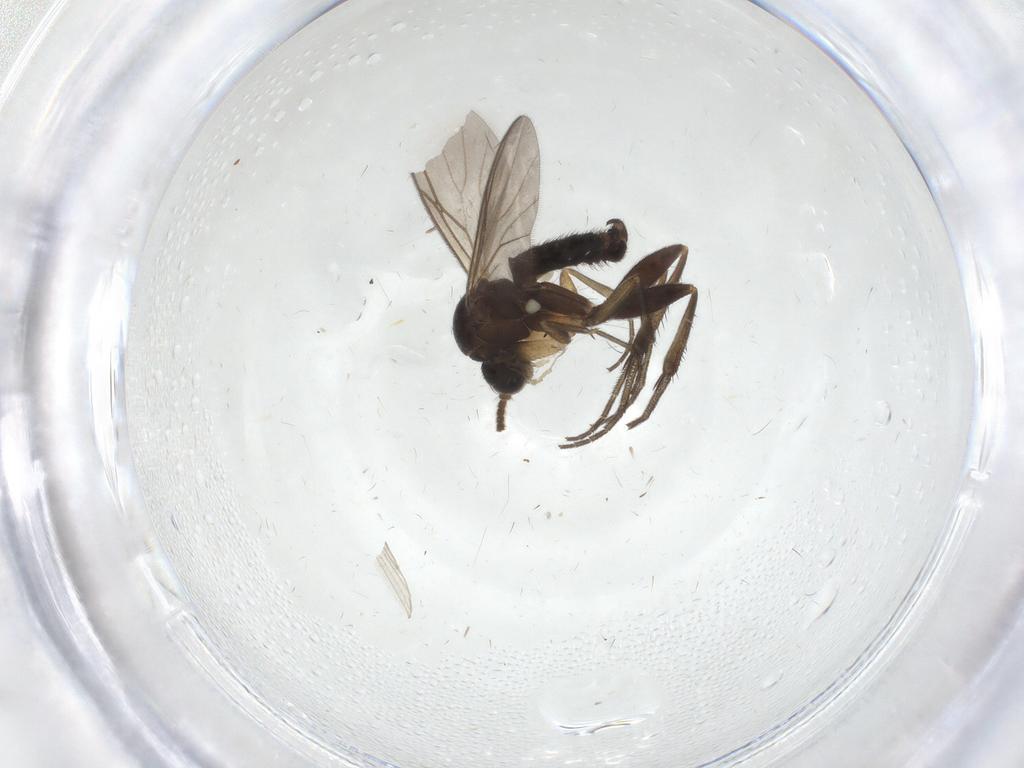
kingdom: Animalia
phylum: Arthropoda
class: Insecta
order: Diptera
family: Mycetophilidae
